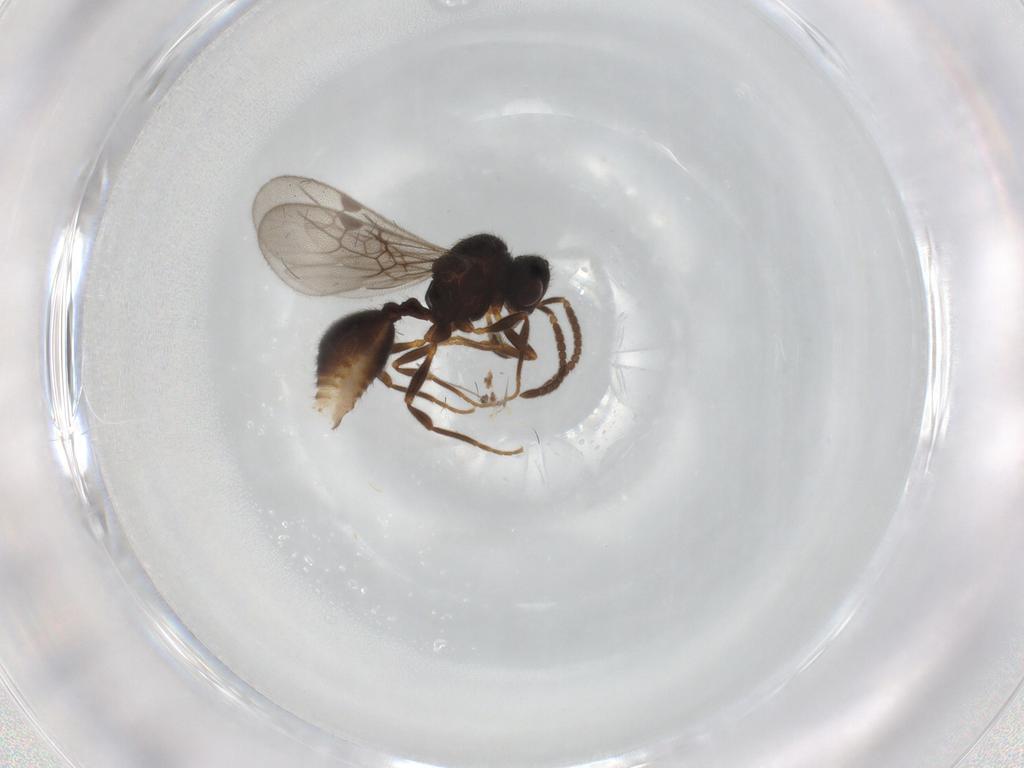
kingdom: Animalia
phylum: Arthropoda
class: Insecta
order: Hymenoptera
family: Formicidae
